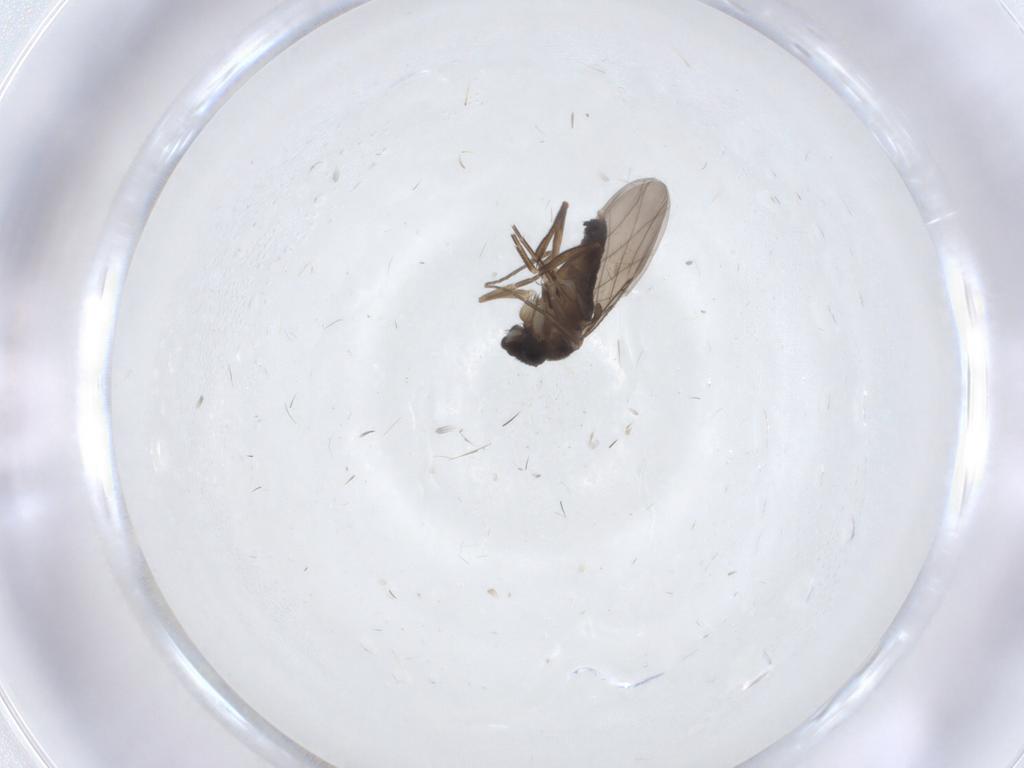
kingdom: Animalia
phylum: Arthropoda
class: Insecta
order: Diptera
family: Phoridae
